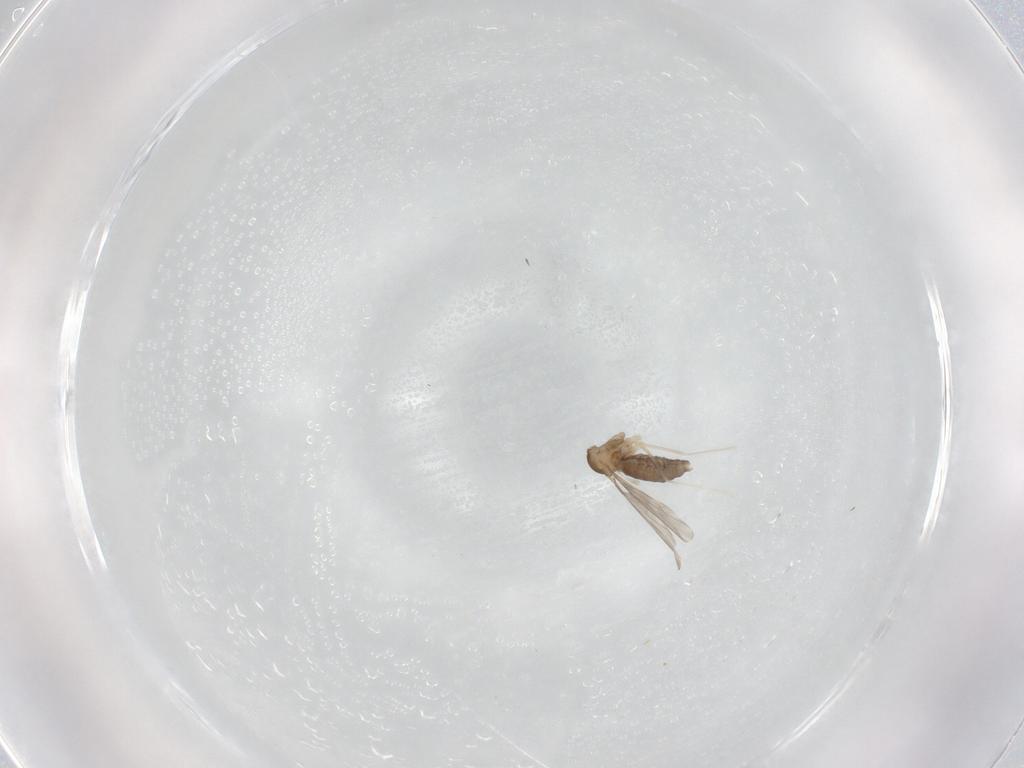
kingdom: Animalia
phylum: Arthropoda
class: Insecta
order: Diptera
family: Cecidomyiidae
